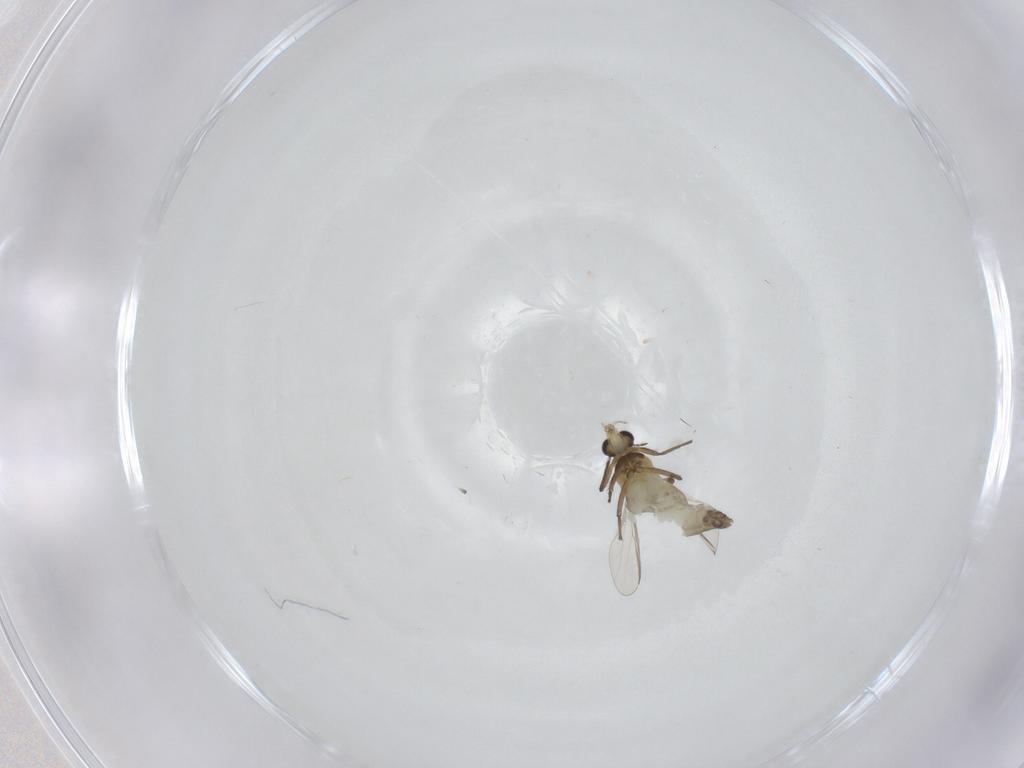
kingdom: Animalia
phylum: Arthropoda
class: Insecta
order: Diptera
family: Chironomidae
